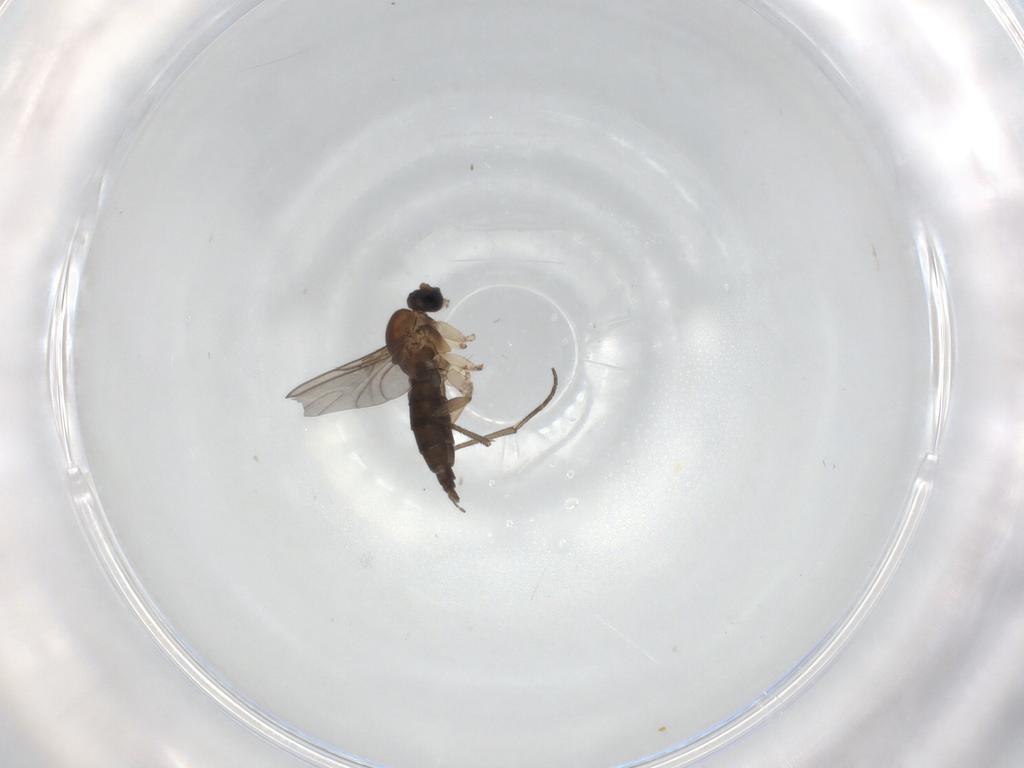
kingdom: Animalia
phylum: Arthropoda
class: Insecta
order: Diptera
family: Sciaridae
